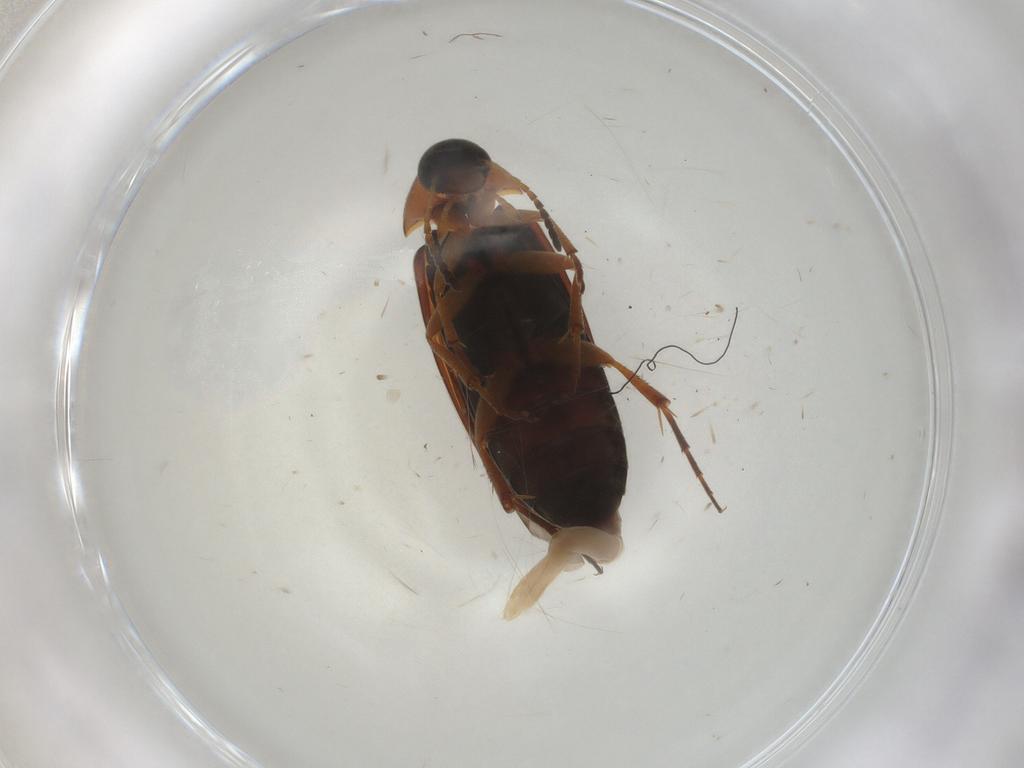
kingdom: Animalia
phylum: Arthropoda
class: Insecta
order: Coleoptera
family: Scraptiidae
